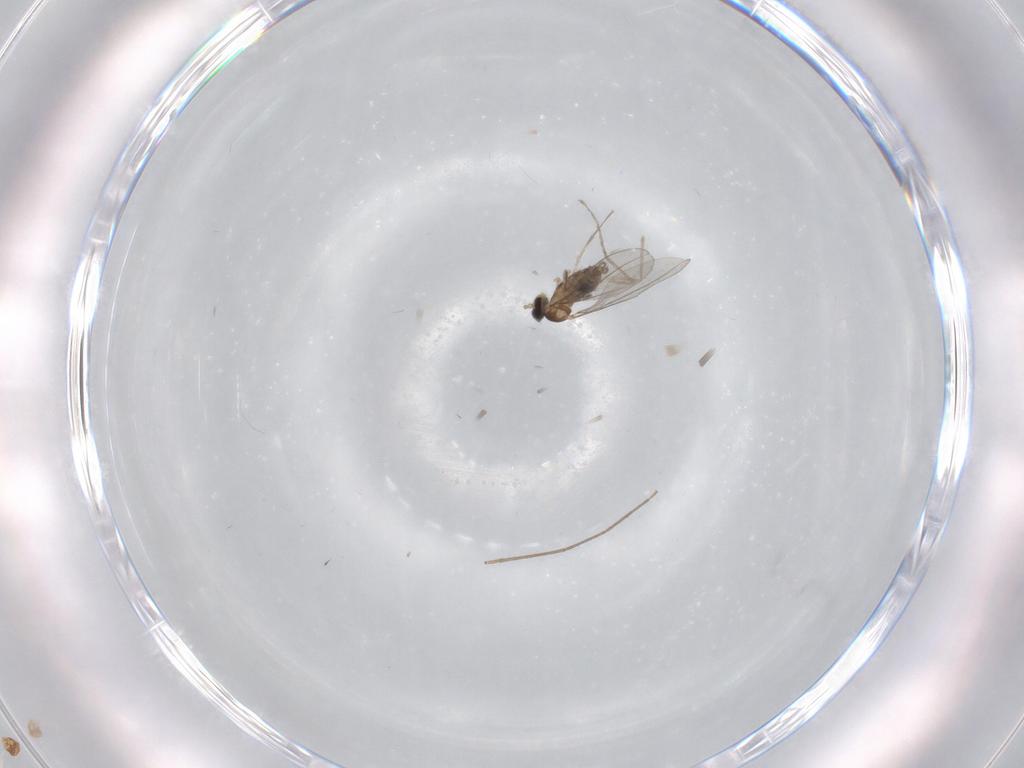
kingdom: Animalia
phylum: Arthropoda
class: Insecta
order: Diptera
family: Cecidomyiidae
